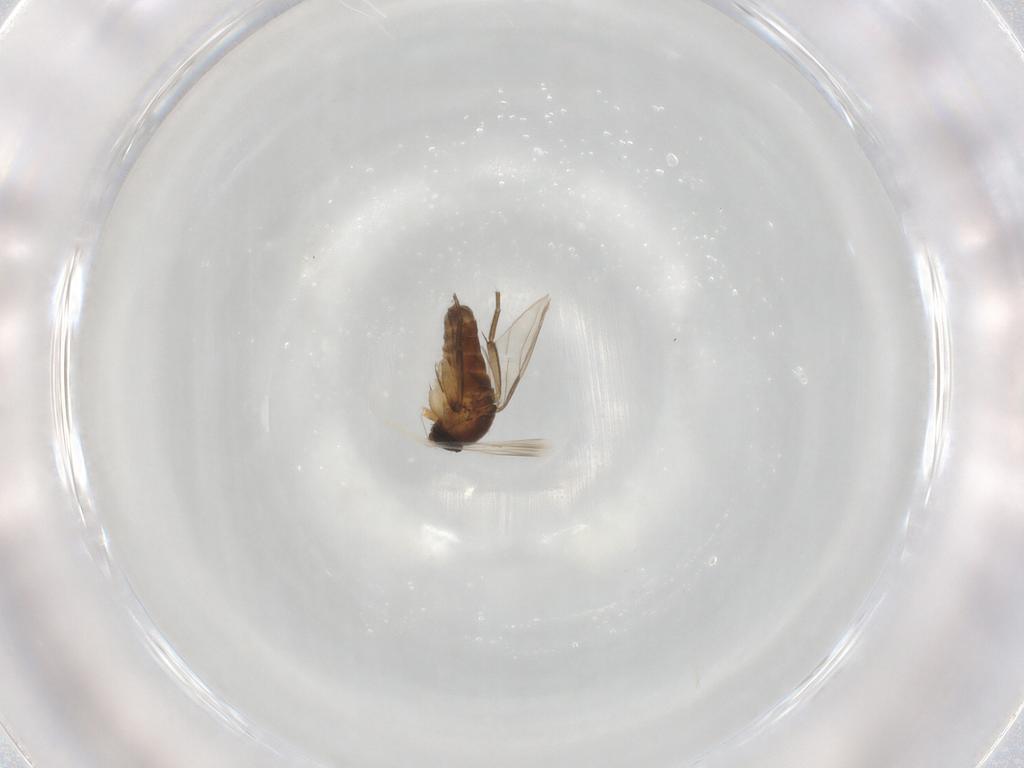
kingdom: Animalia
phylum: Arthropoda
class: Insecta
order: Diptera
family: Phoridae
